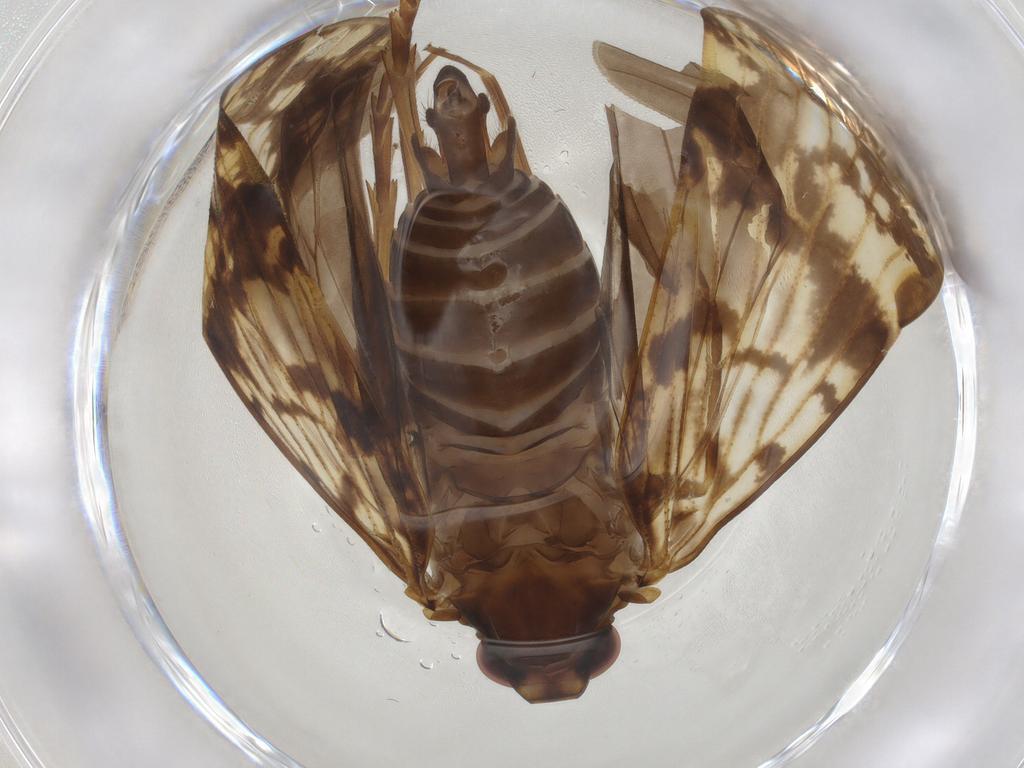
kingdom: Animalia
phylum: Arthropoda
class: Insecta
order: Hemiptera
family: Cixiidae
